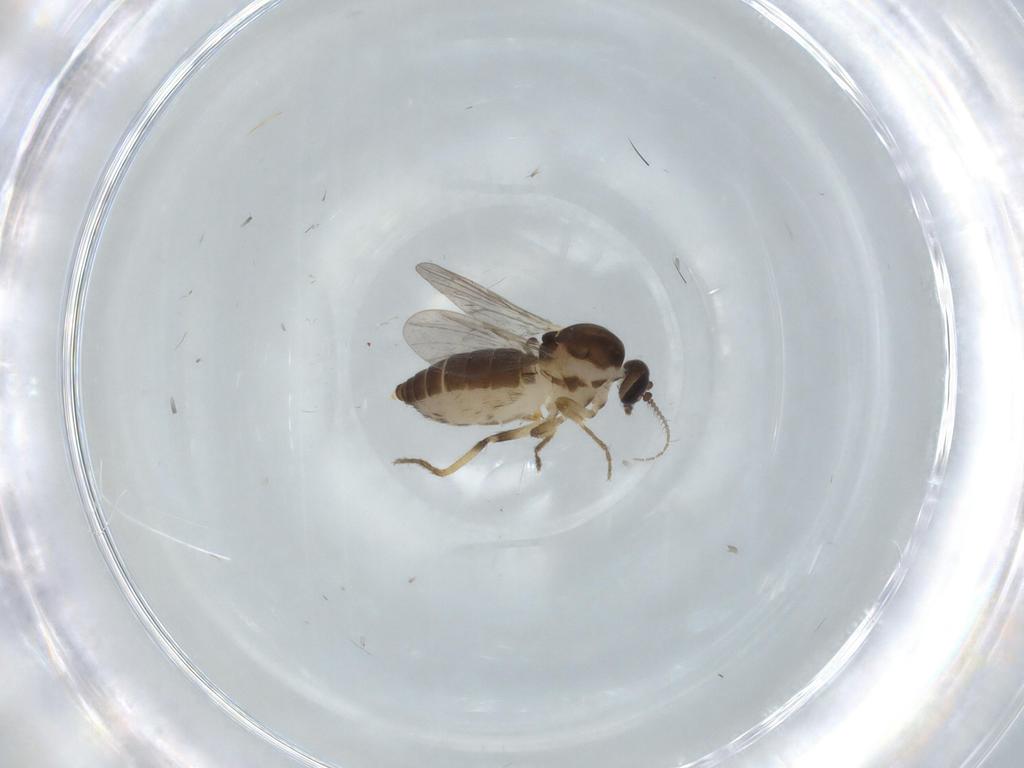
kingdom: Animalia
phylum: Arthropoda
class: Insecta
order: Diptera
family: Ceratopogonidae
